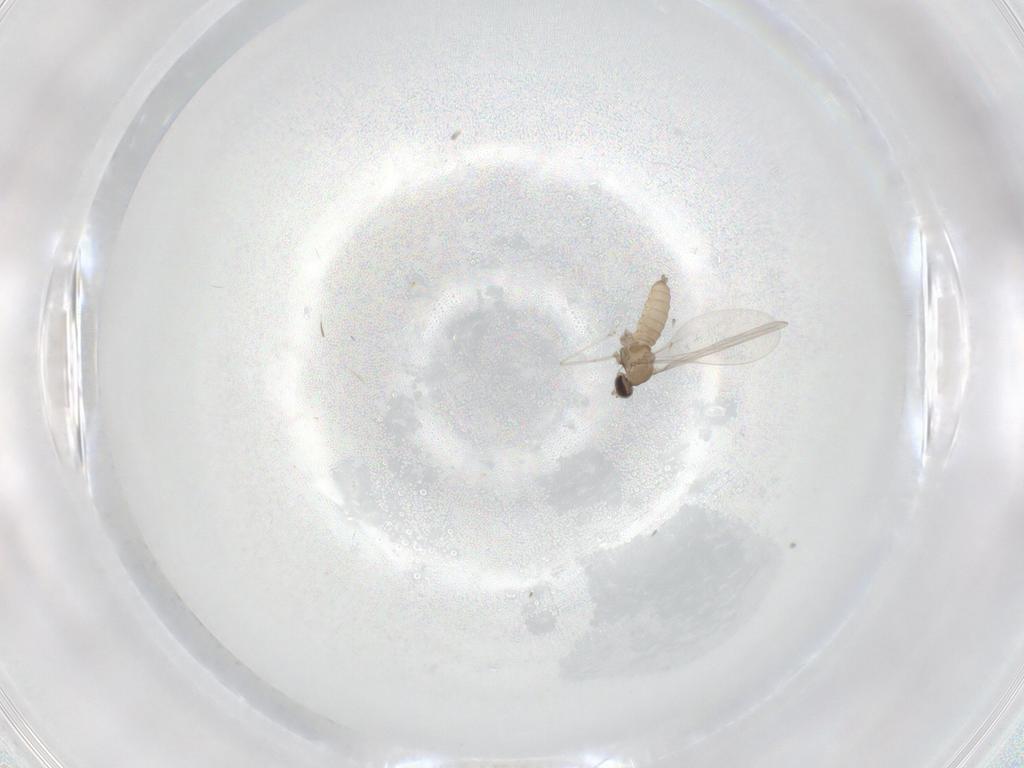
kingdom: Animalia
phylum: Arthropoda
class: Insecta
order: Diptera
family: Cecidomyiidae
